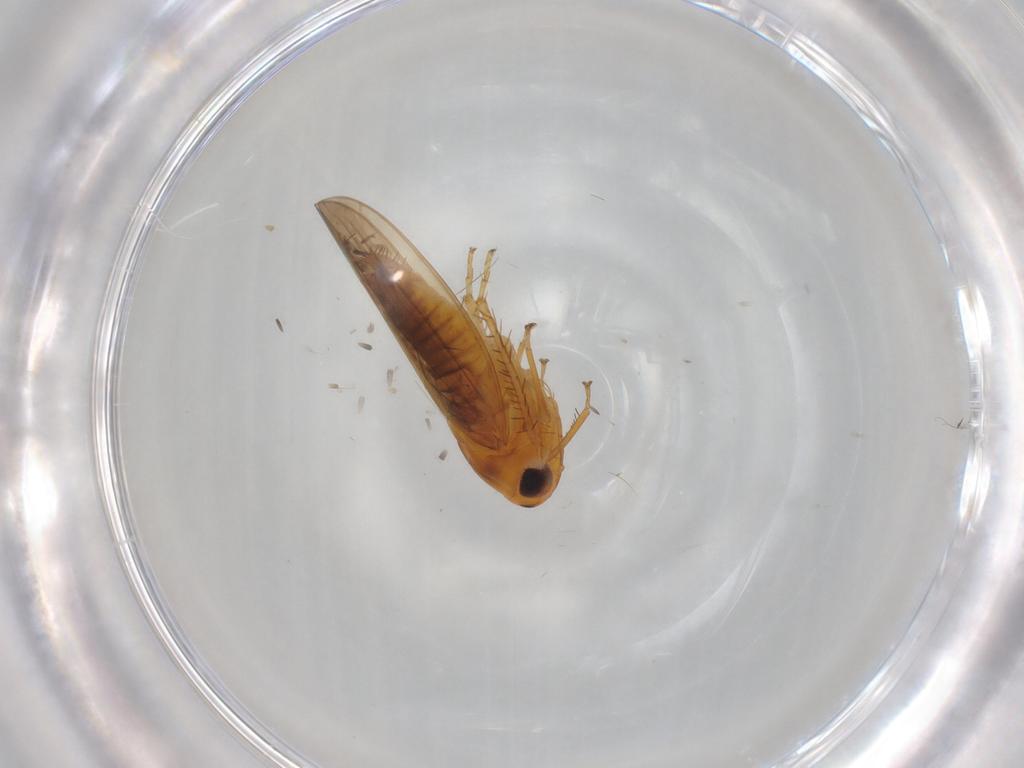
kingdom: Animalia
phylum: Arthropoda
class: Insecta
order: Hemiptera
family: Cicadellidae
